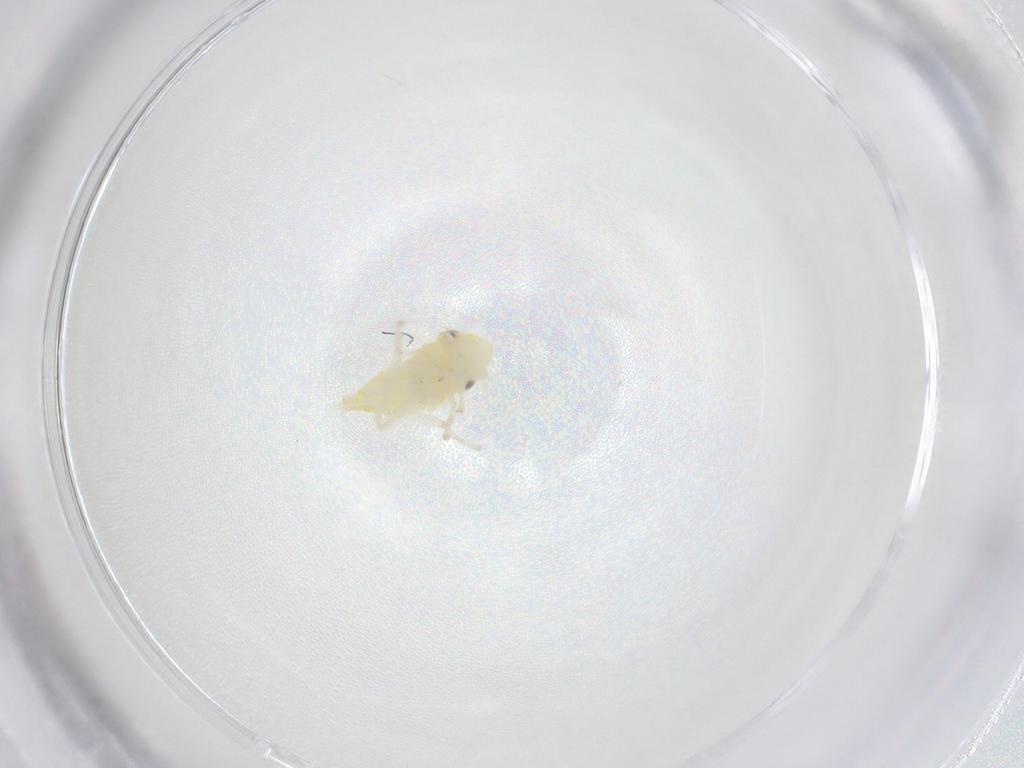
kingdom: Animalia
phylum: Arthropoda
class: Insecta
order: Hemiptera
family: Cicadellidae
